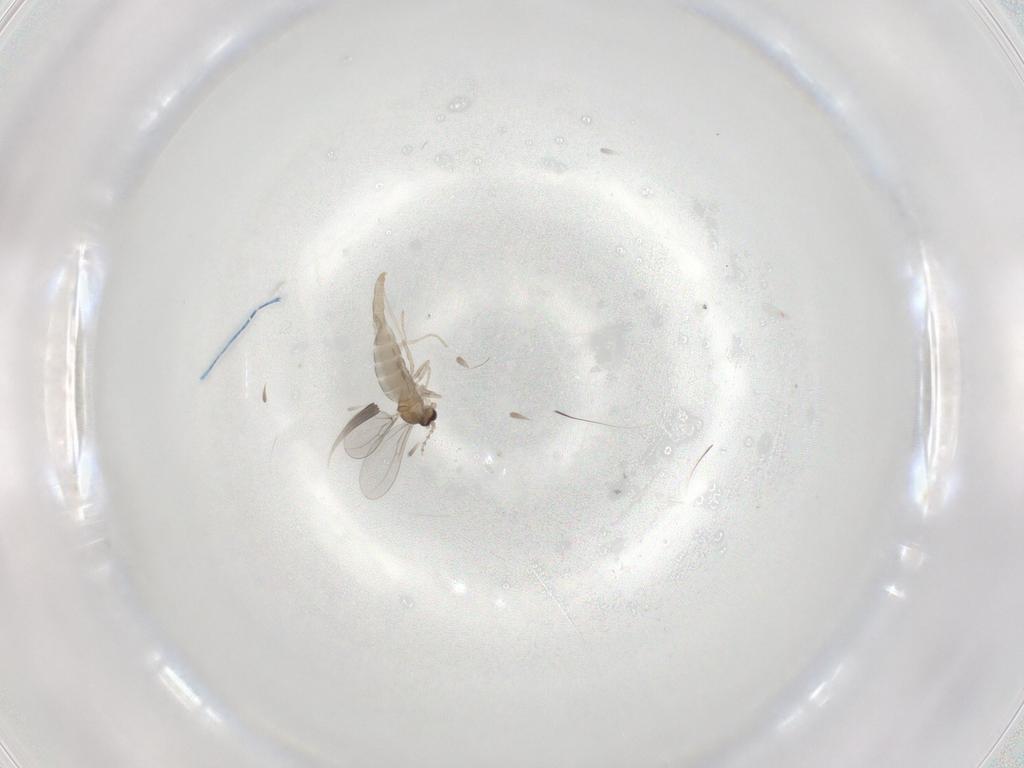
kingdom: Animalia
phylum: Arthropoda
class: Insecta
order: Diptera
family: Cecidomyiidae
